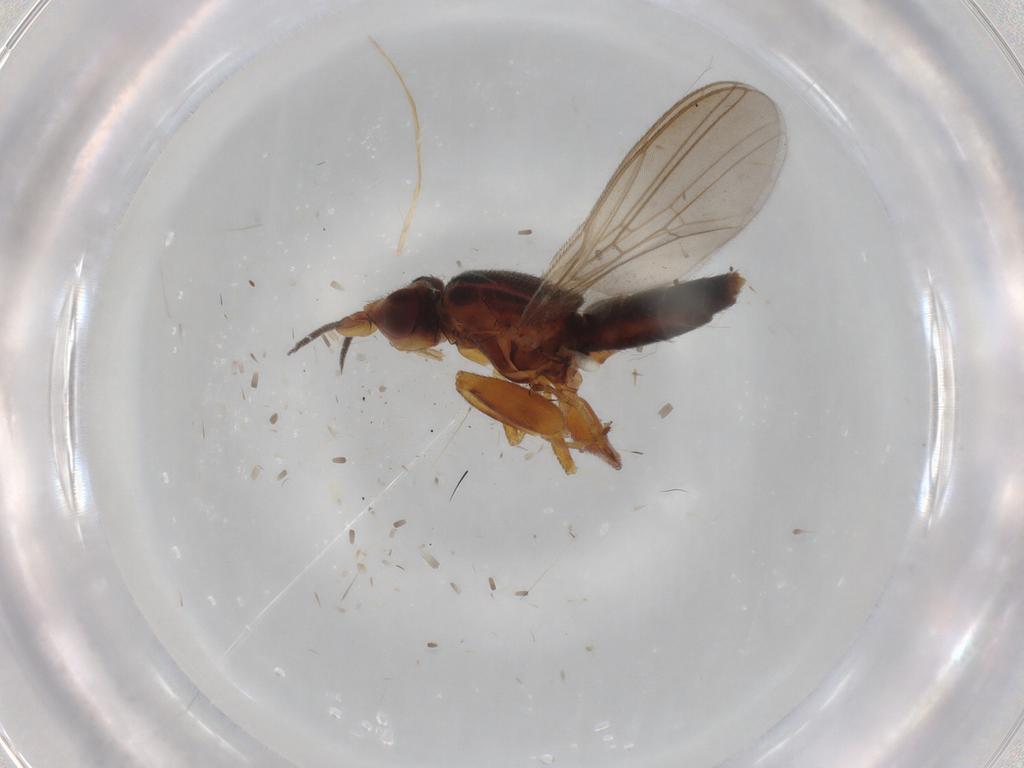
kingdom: Animalia
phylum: Arthropoda
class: Insecta
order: Diptera
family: Chloropidae
